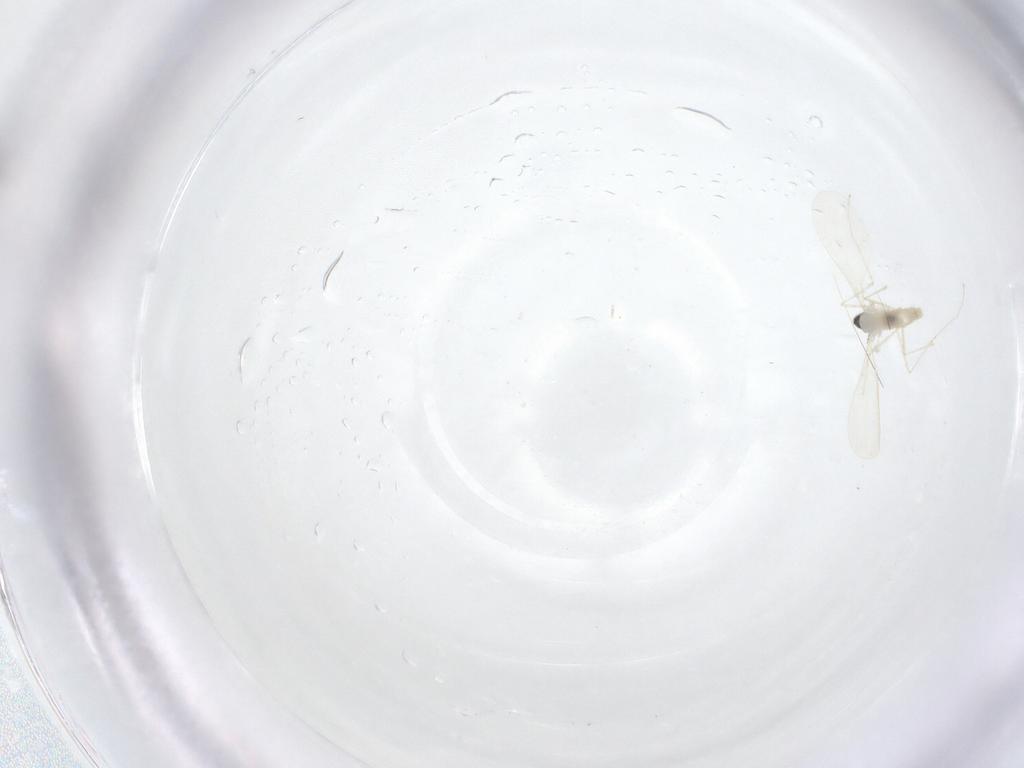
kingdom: Animalia
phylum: Arthropoda
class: Insecta
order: Diptera
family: Cecidomyiidae
